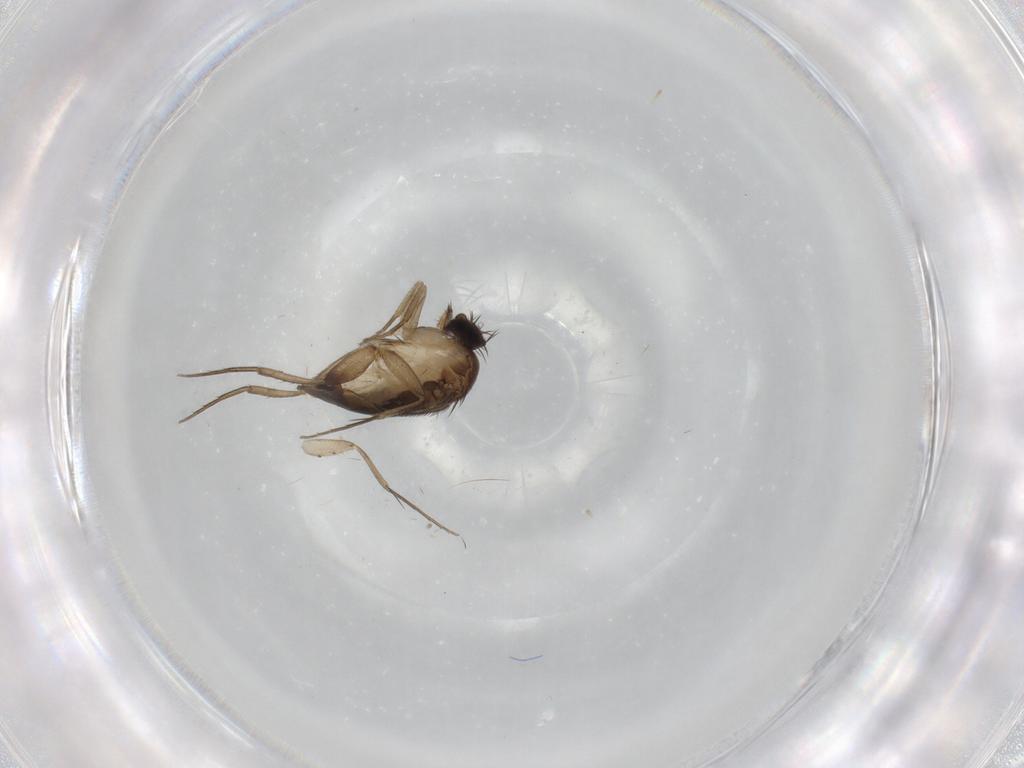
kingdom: Animalia
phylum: Arthropoda
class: Insecta
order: Diptera
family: Phoridae
